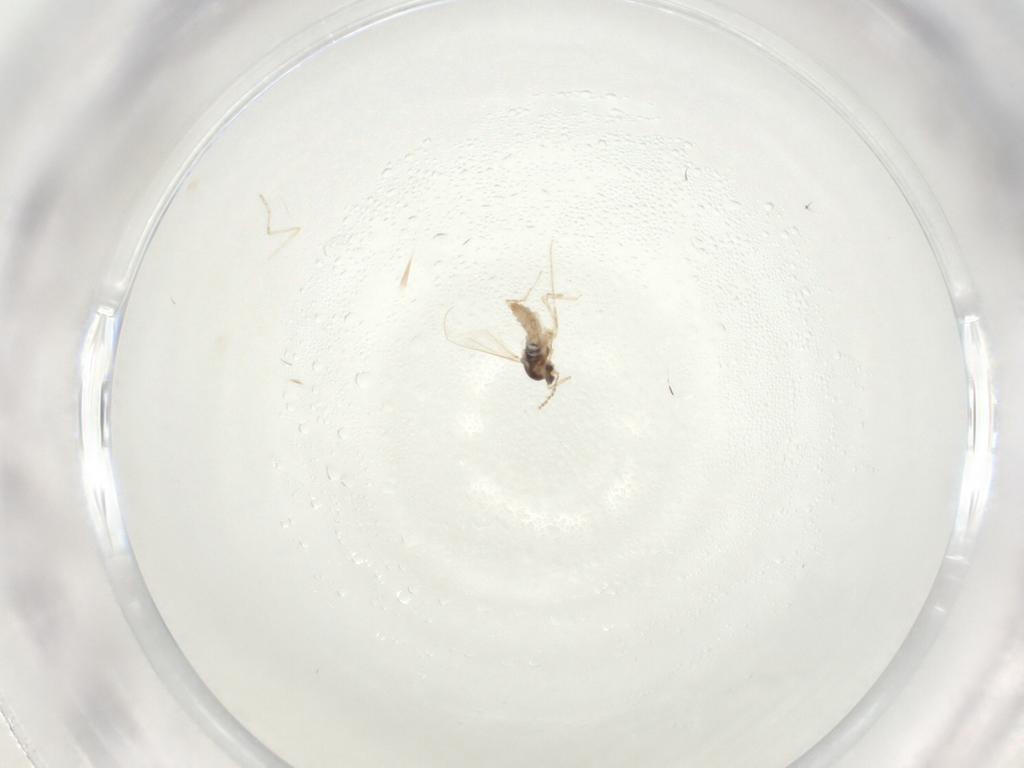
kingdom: Animalia
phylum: Arthropoda
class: Insecta
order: Diptera
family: Cecidomyiidae
